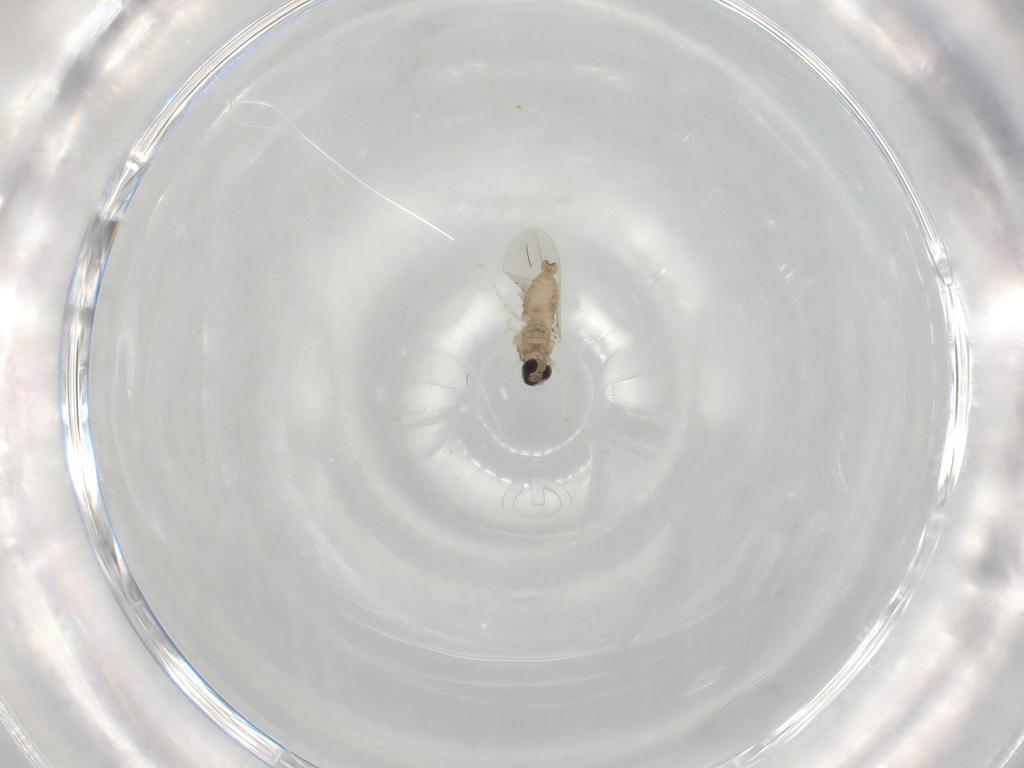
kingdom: Animalia
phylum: Arthropoda
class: Insecta
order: Diptera
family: Cecidomyiidae
